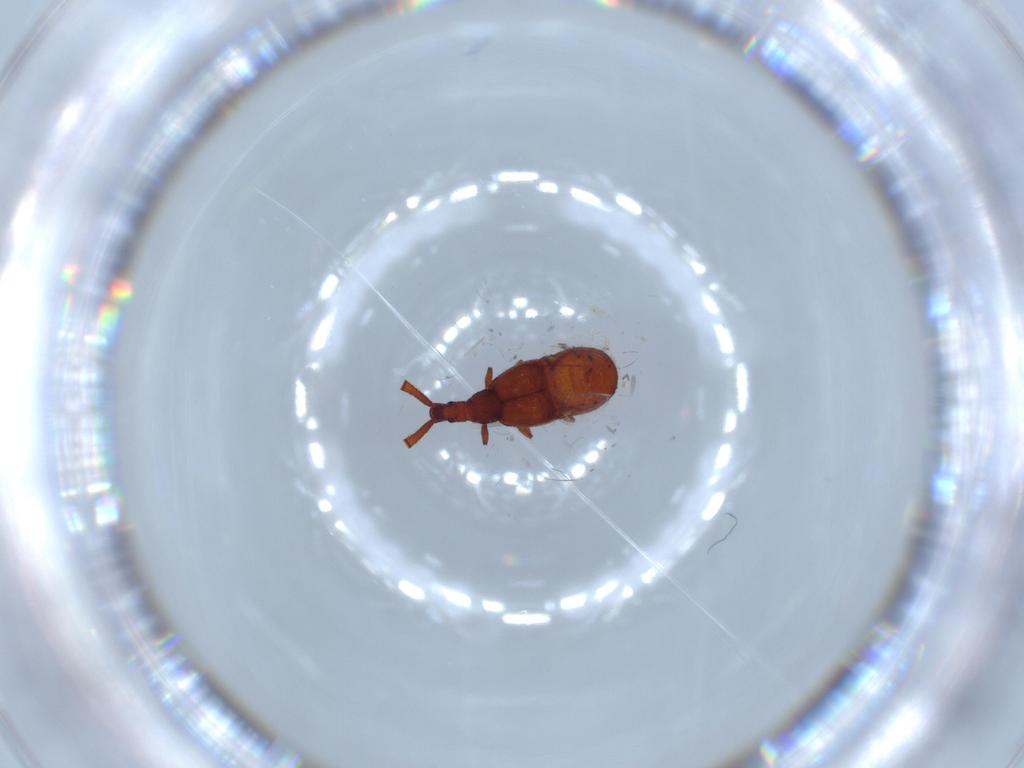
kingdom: Animalia
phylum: Arthropoda
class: Insecta
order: Coleoptera
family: Staphylinidae
